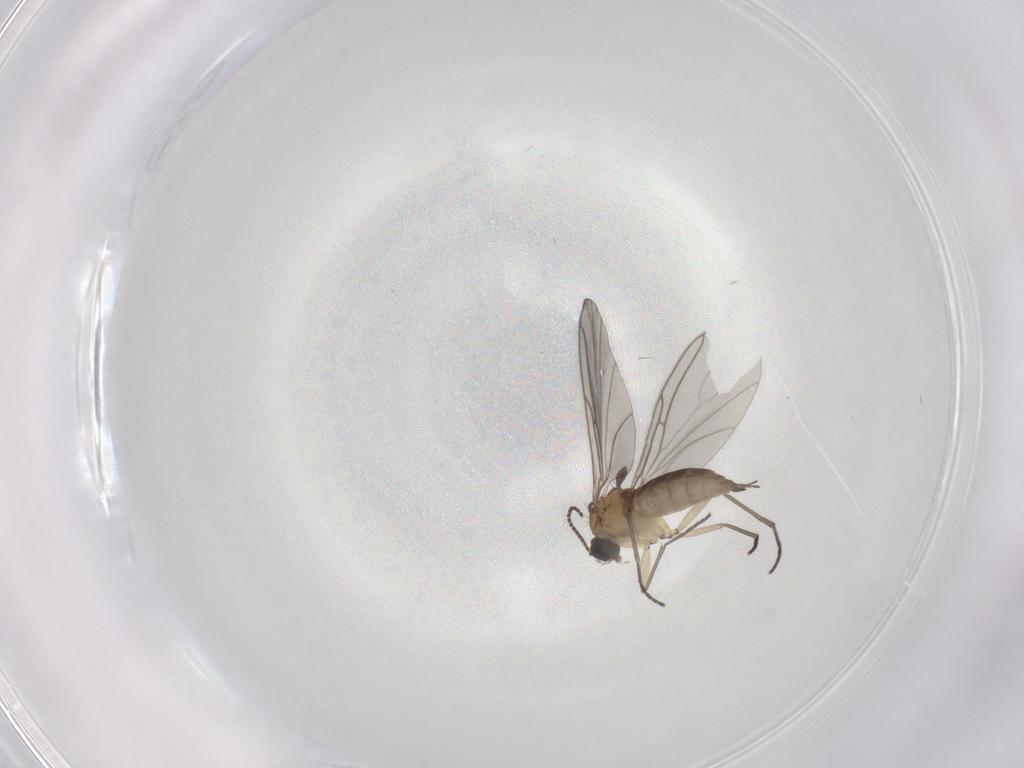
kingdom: Animalia
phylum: Arthropoda
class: Insecta
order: Diptera
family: Sciaridae
